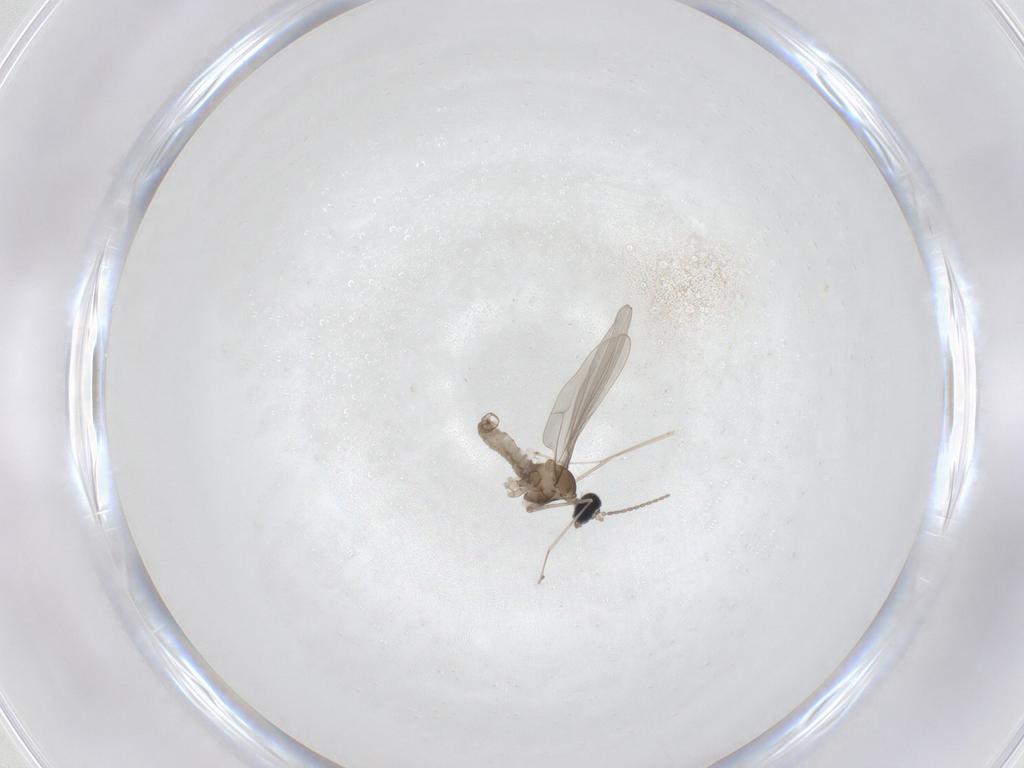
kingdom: Animalia
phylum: Arthropoda
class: Insecta
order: Diptera
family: Cecidomyiidae
